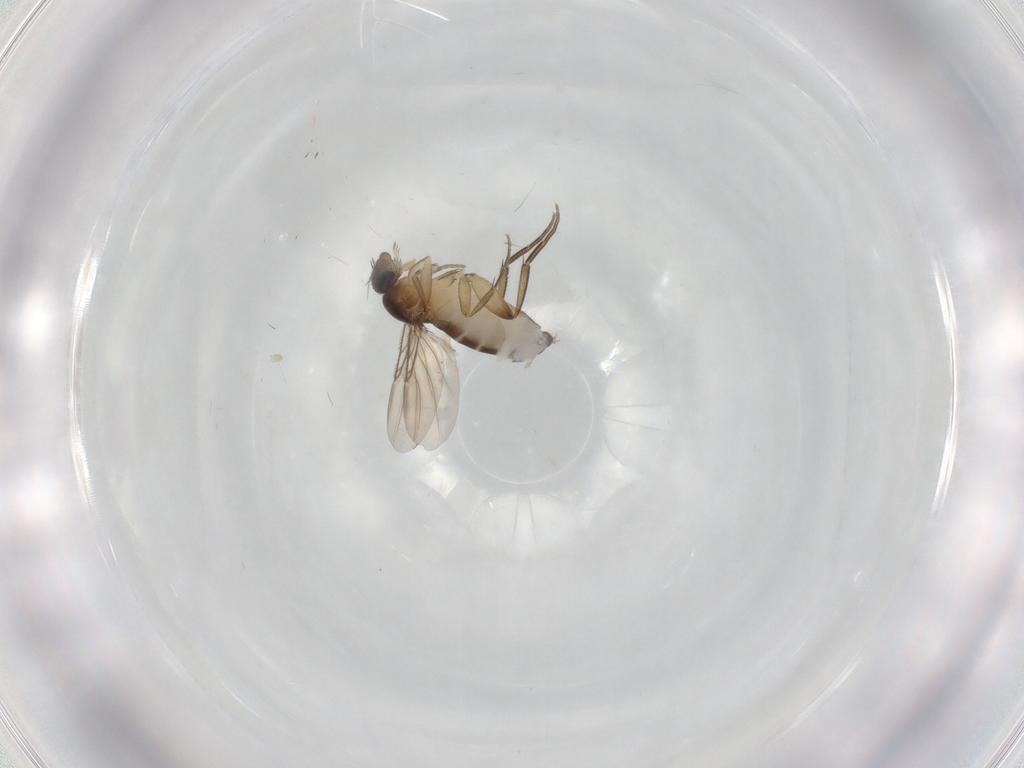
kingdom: Animalia
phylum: Arthropoda
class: Insecta
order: Diptera
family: Phoridae
